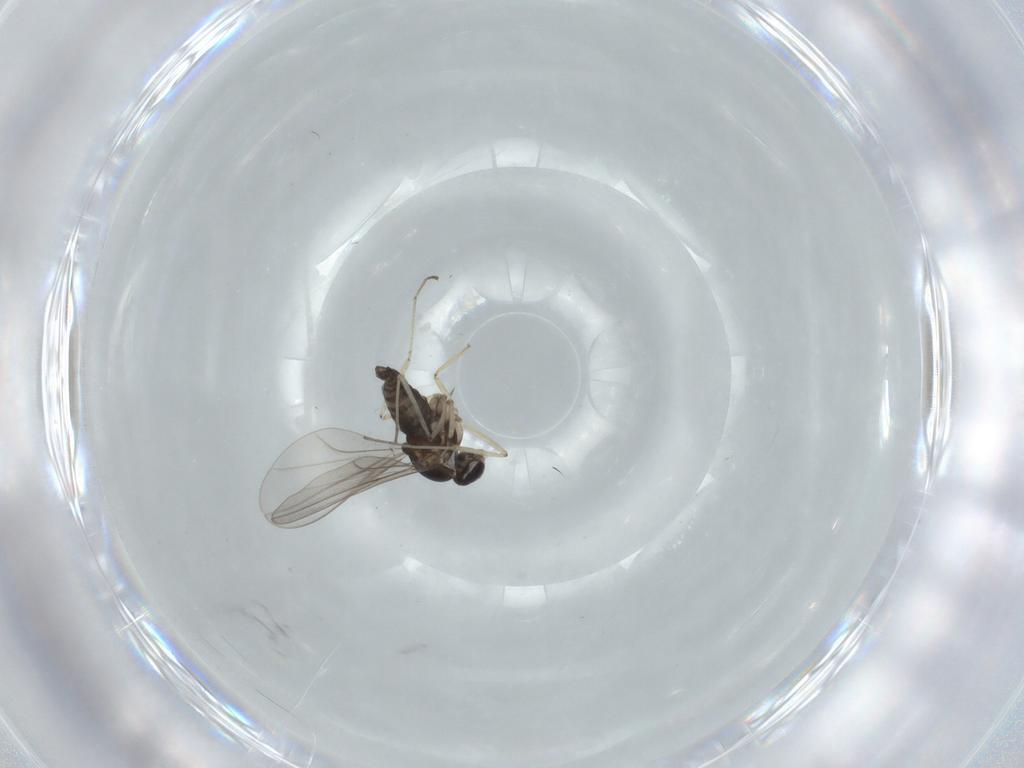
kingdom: Animalia
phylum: Arthropoda
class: Insecta
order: Diptera
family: Cecidomyiidae
